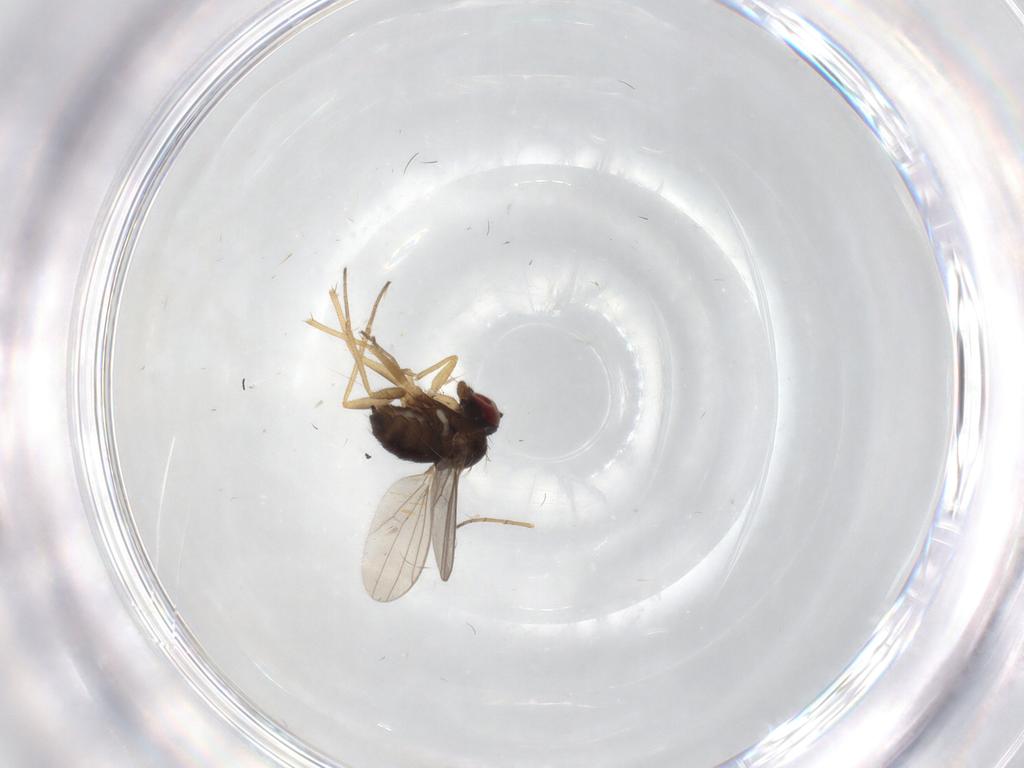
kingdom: Animalia
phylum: Arthropoda
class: Insecta
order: Diptera
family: Dolichopodidae
